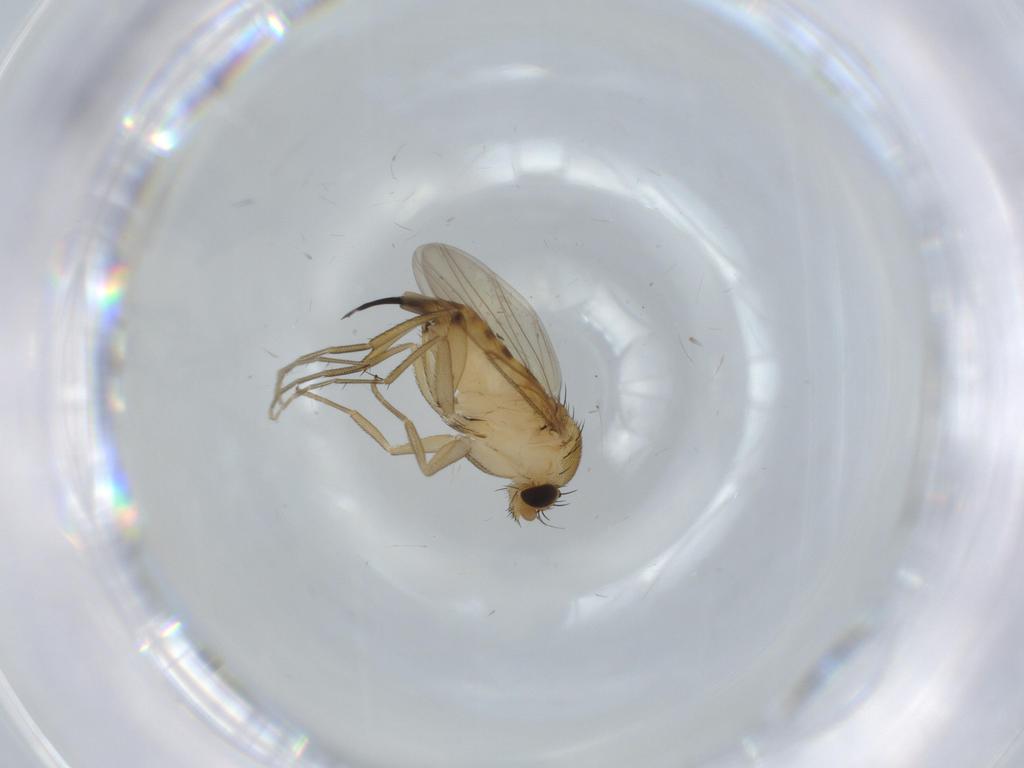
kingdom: Animalia
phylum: Arthropoda
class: Insecta
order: Diptera
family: Phoridae
